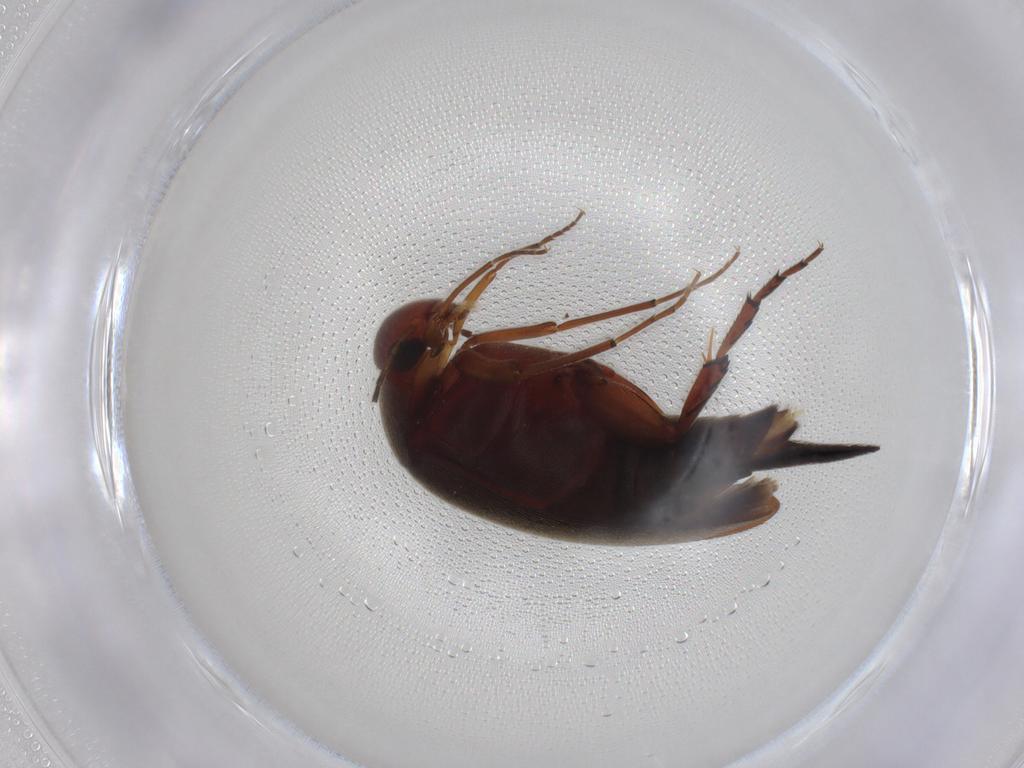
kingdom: Animalia
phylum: Arthropoda
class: Insecta
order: Coleoptera
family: Mordellidae
